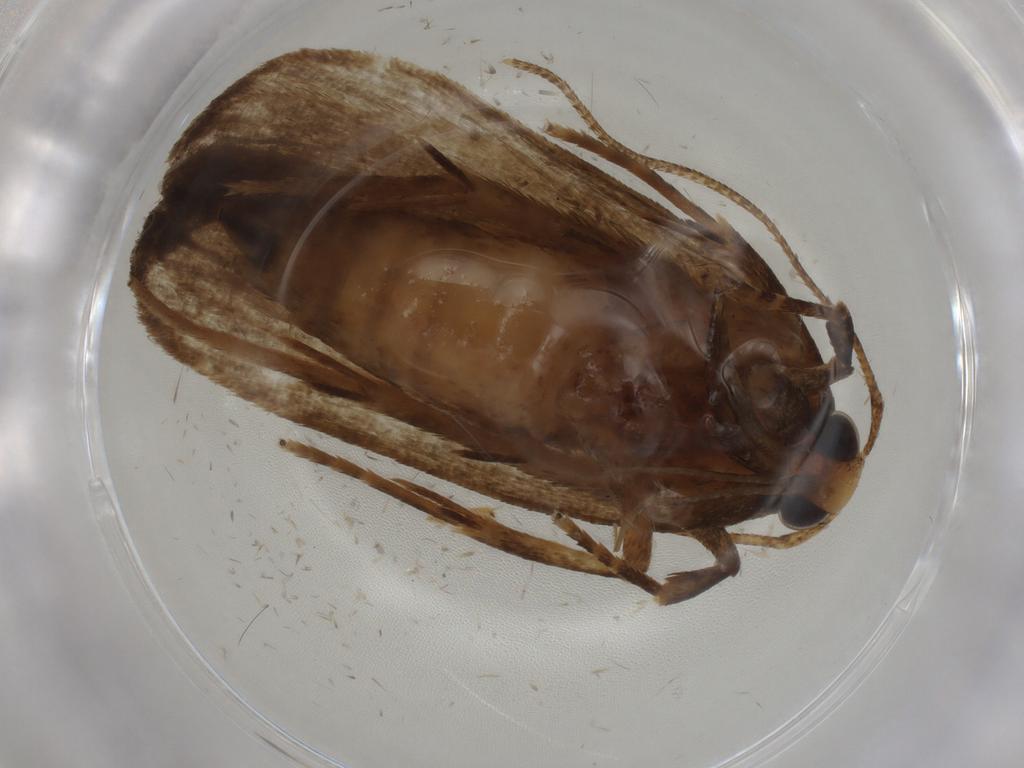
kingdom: Animalia
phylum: Arthropoda
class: Insecta
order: Lepidoptera
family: Autostichidae
